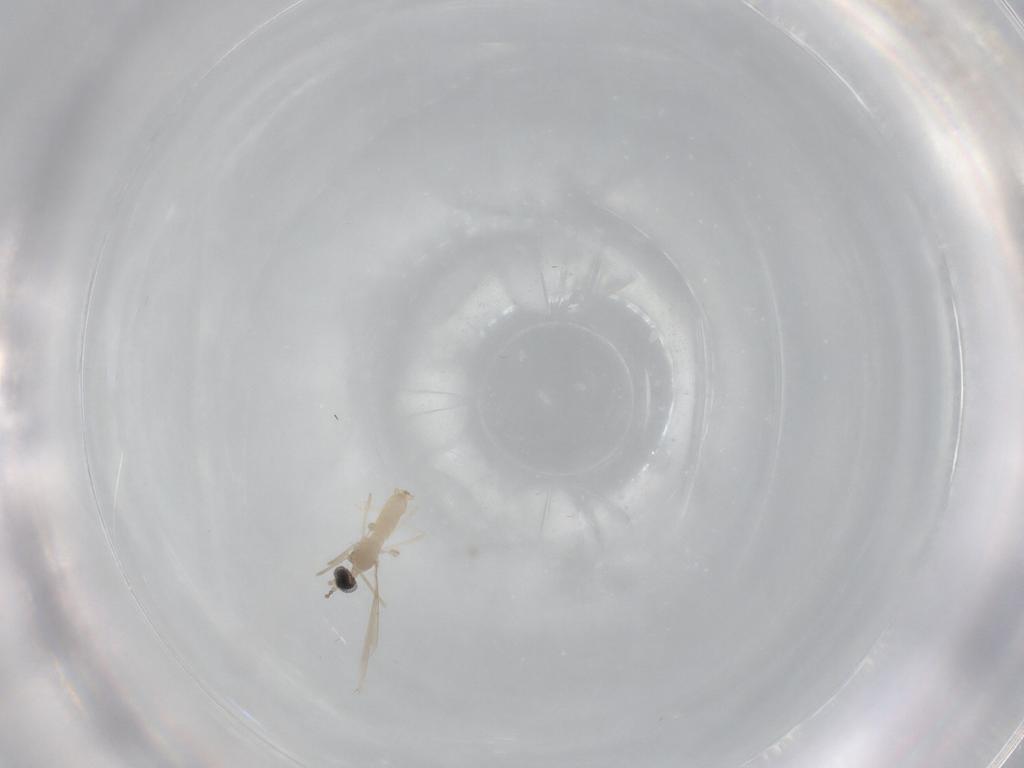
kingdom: Animalia
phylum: Arthropoda
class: Insecta
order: Diptera
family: Cecidomyiidae
